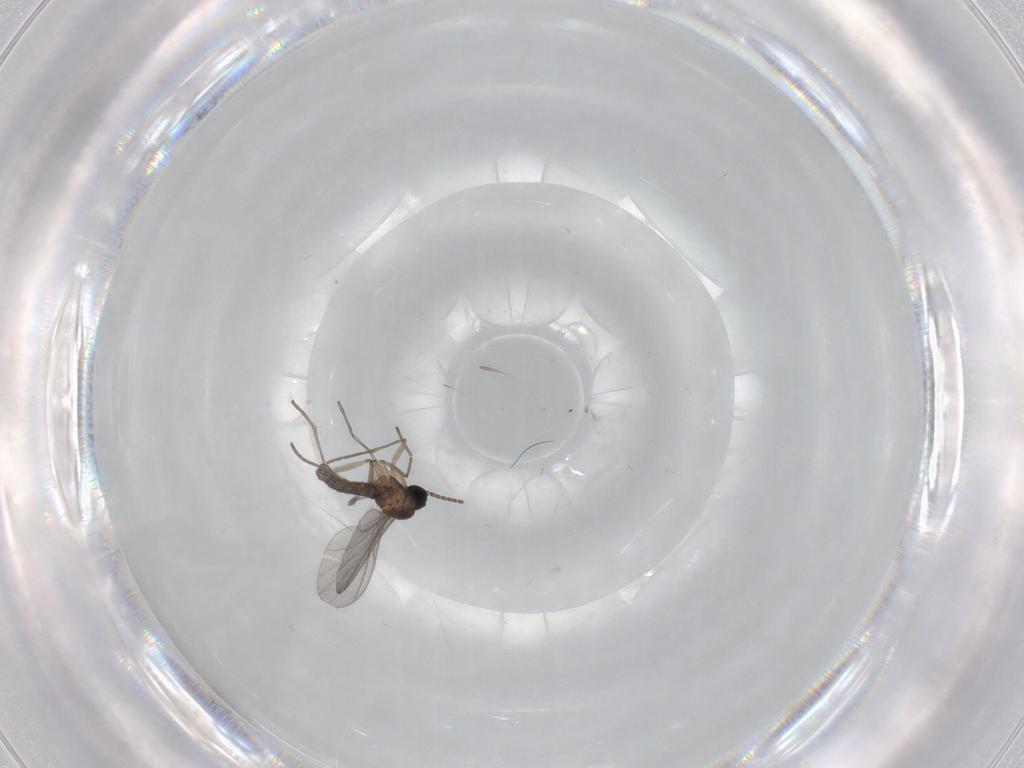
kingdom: Animalia
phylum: Arthropoda
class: Insecta
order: Diptera
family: Sciaridae
